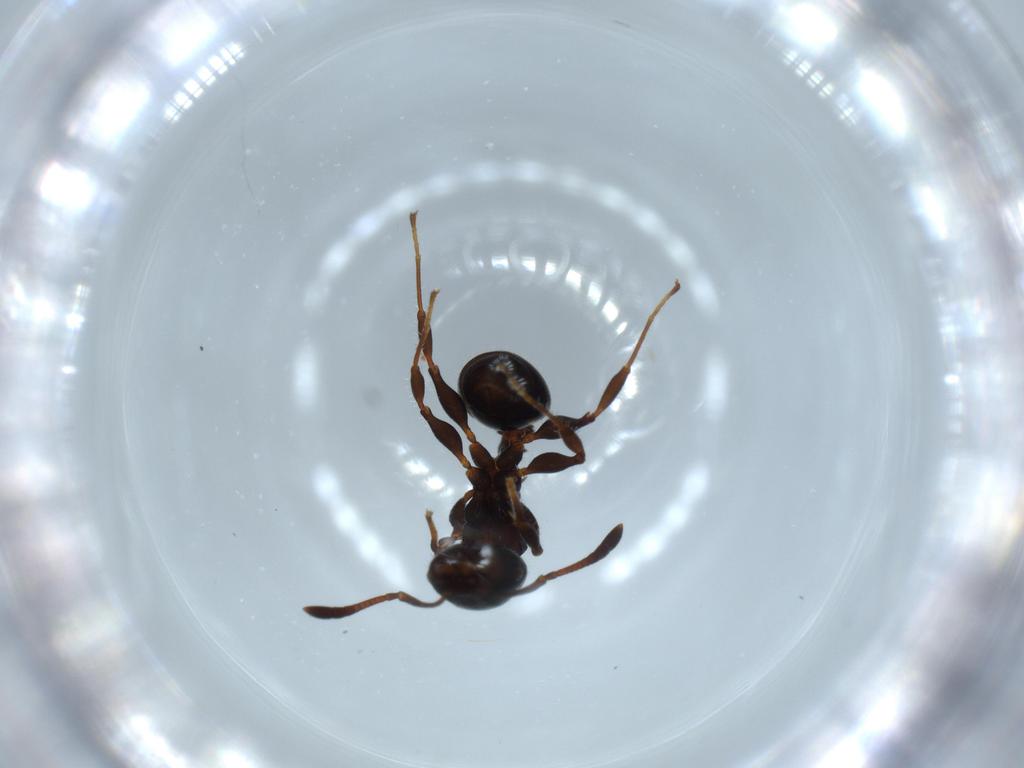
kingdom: Animalia
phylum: Arthropoda
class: Insecta
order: Hymenoptera
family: Formicidae
